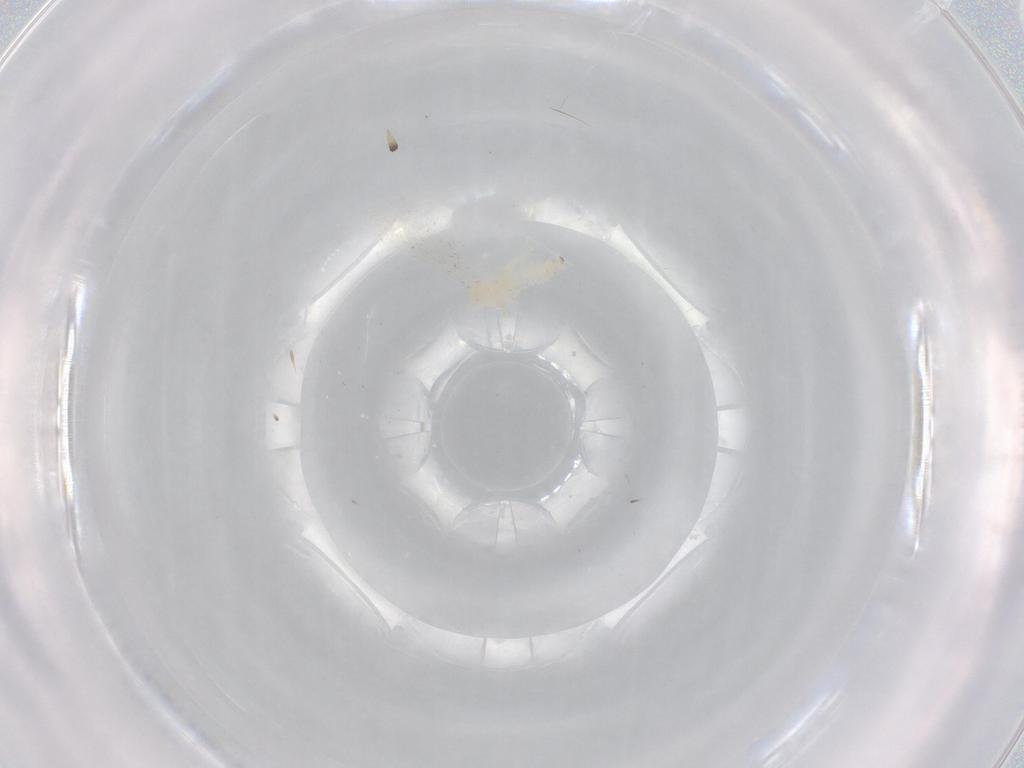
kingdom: Animalia
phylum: Arthropoda
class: Insecta
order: Diptera
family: Cecidomyiidae
